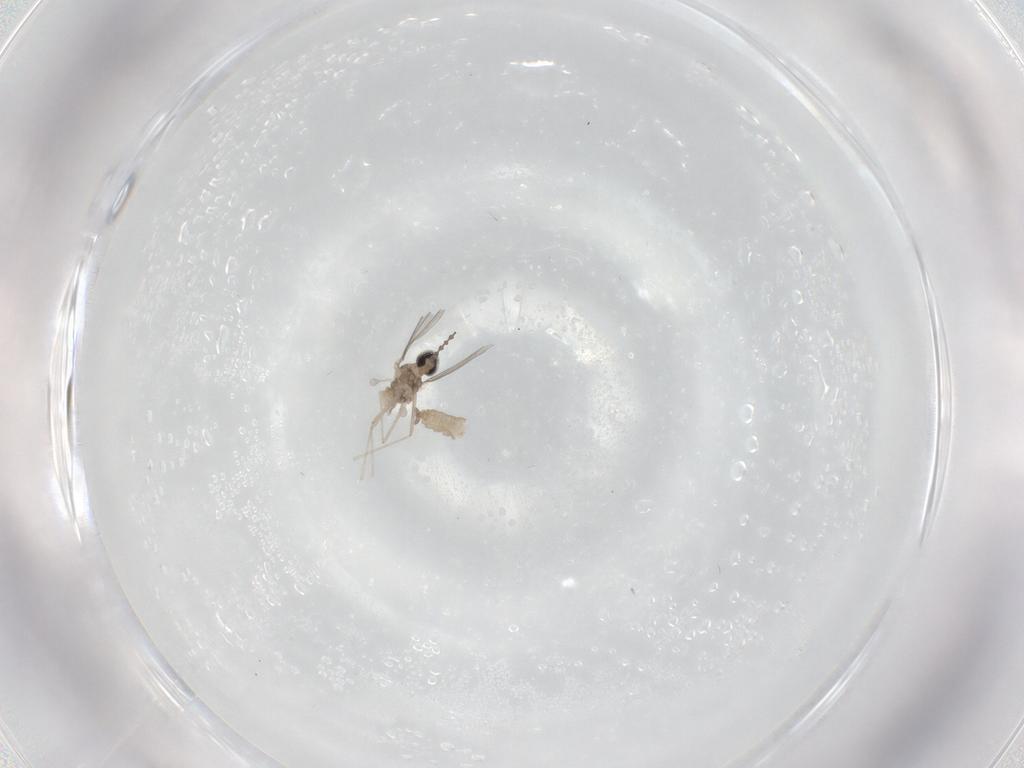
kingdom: Animalia
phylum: Arthropoda
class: Insecta
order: Diptera
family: Cecidomyiidae
